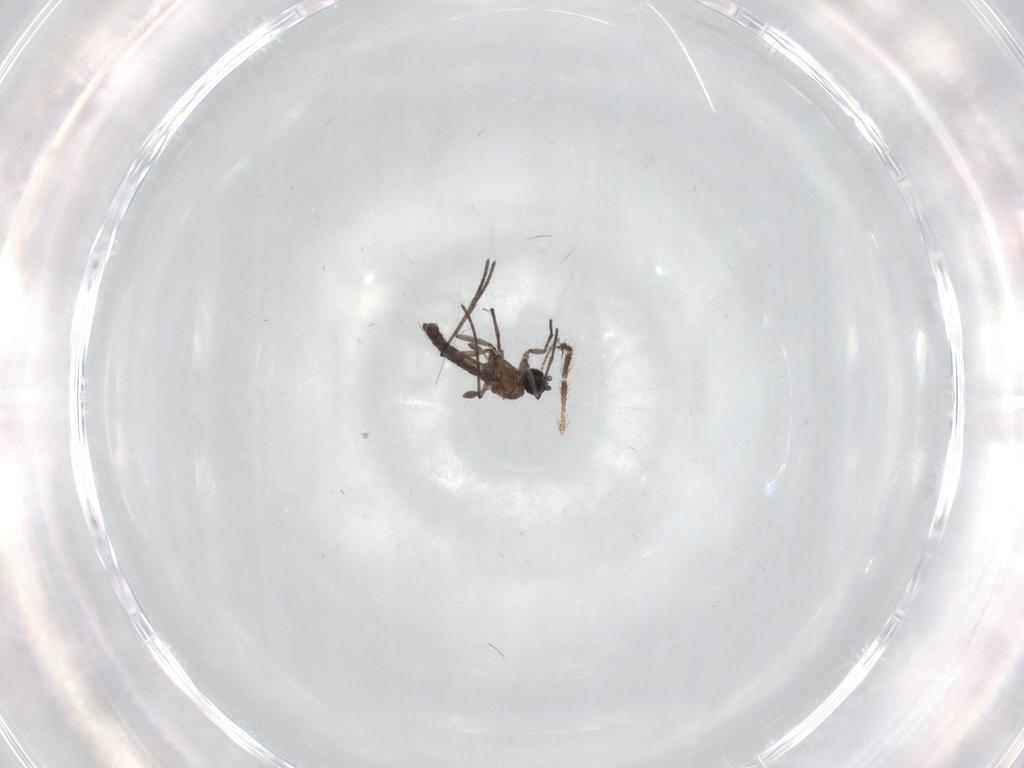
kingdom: Animalia
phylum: Arthropoda
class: Insecta
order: Diptera
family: Limoniidae
